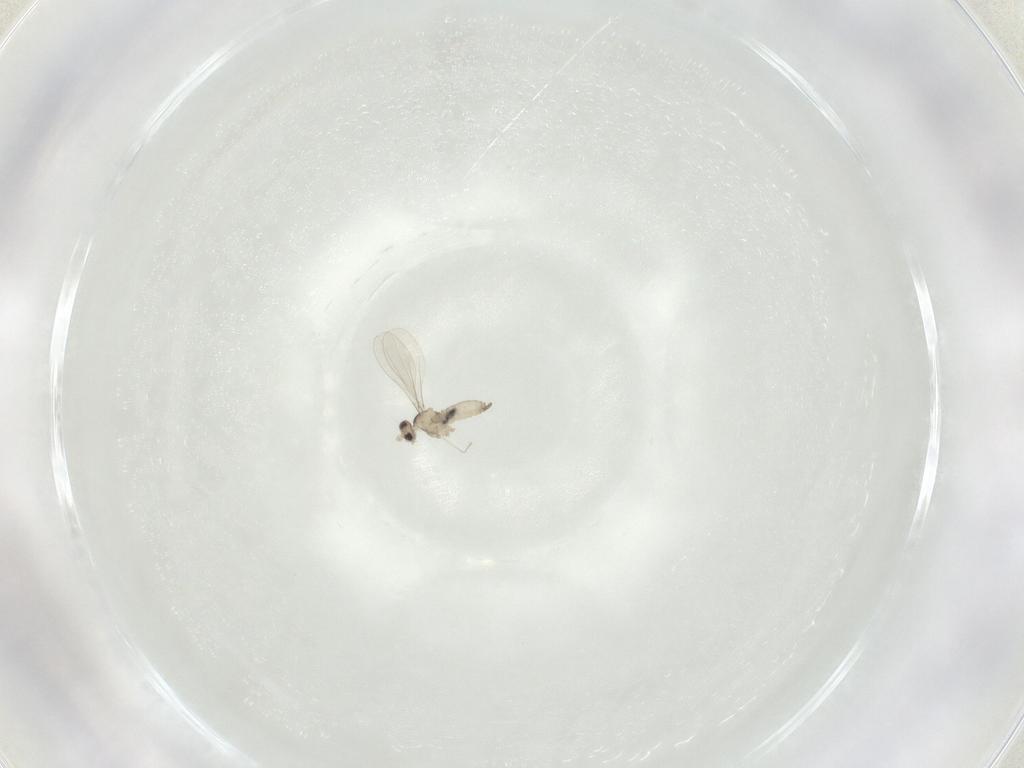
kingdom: Animalia
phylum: Arthropoda
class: Insecta
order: Diptera
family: Cecidomyiidae
